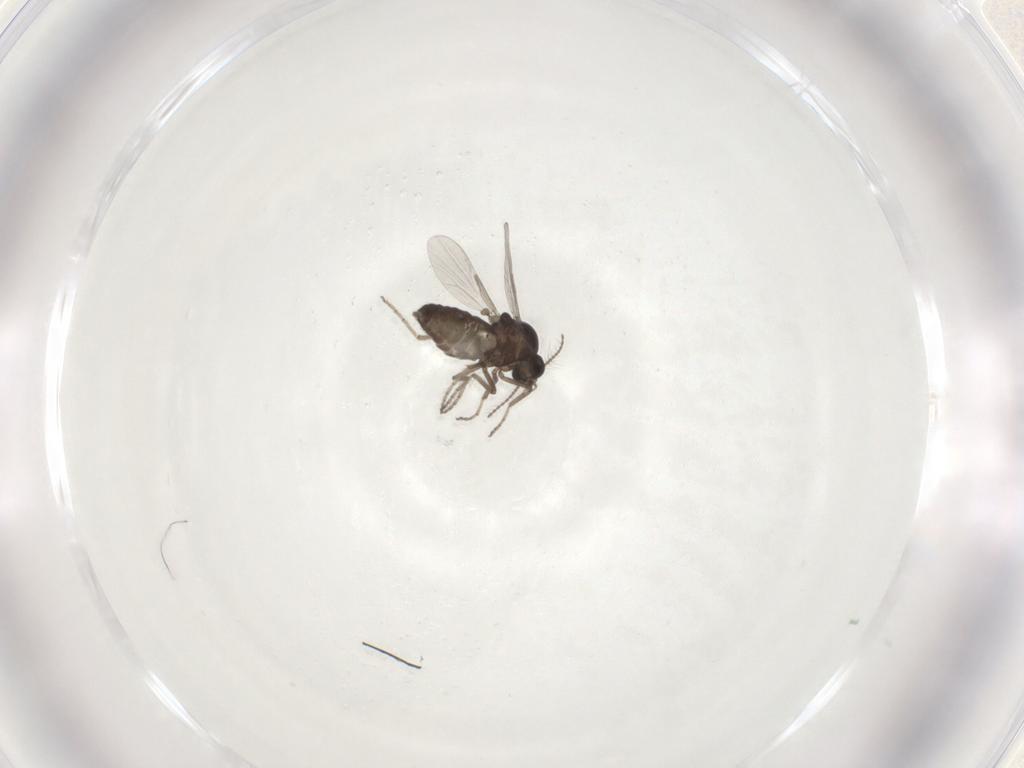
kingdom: Animalia
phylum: Arthropoda
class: Insecta
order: Diptera
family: Ceratopogonidae
